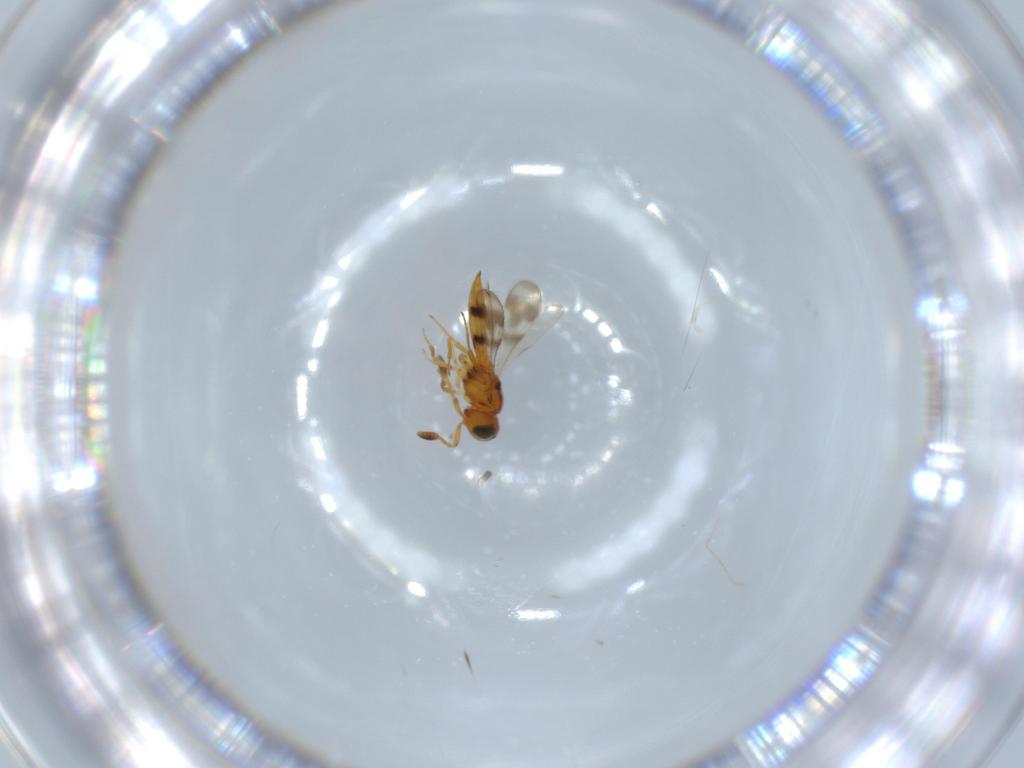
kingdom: Animalia
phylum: Arthropoda
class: Insecta
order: Hymenoptera
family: Scelionidae
